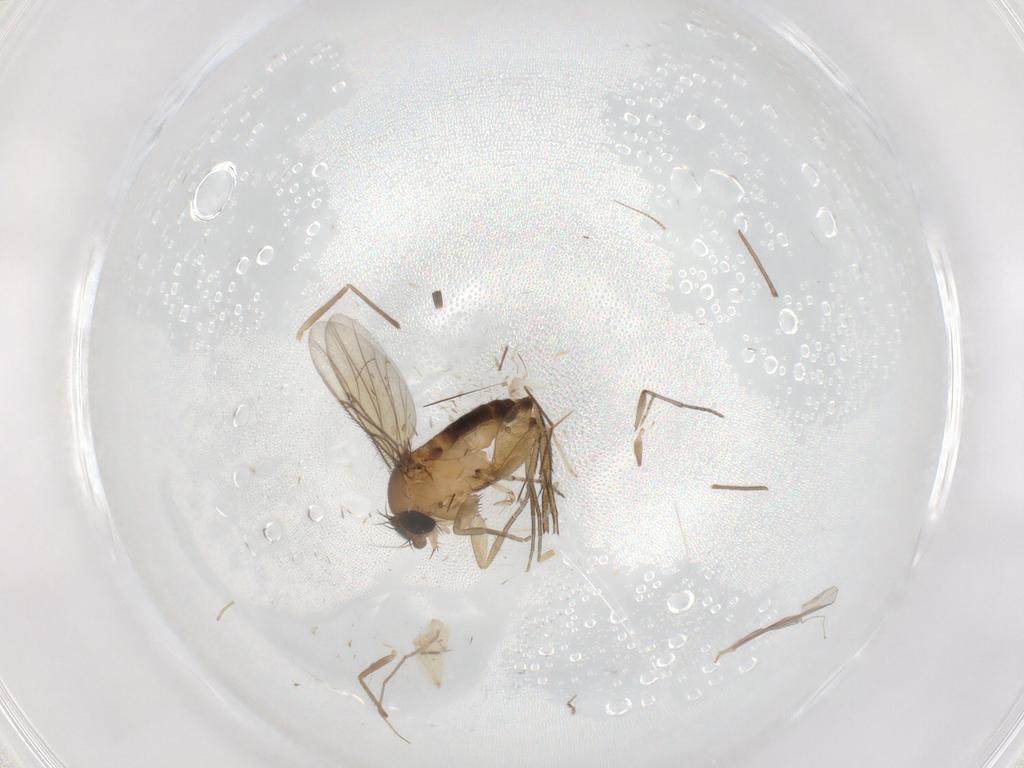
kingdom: Animalia
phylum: Arthropoda
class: Insecta
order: Diptera
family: Phoridae
